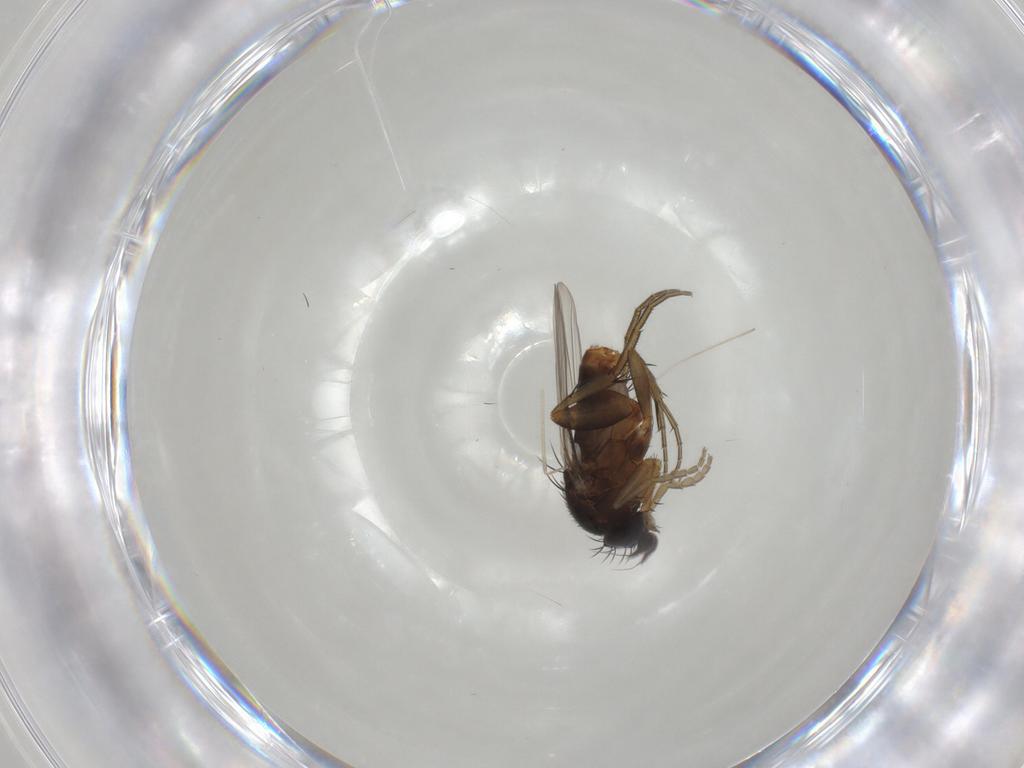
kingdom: Animalia
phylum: Arthropoda
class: Insecta
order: Diptera
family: Phoridae
